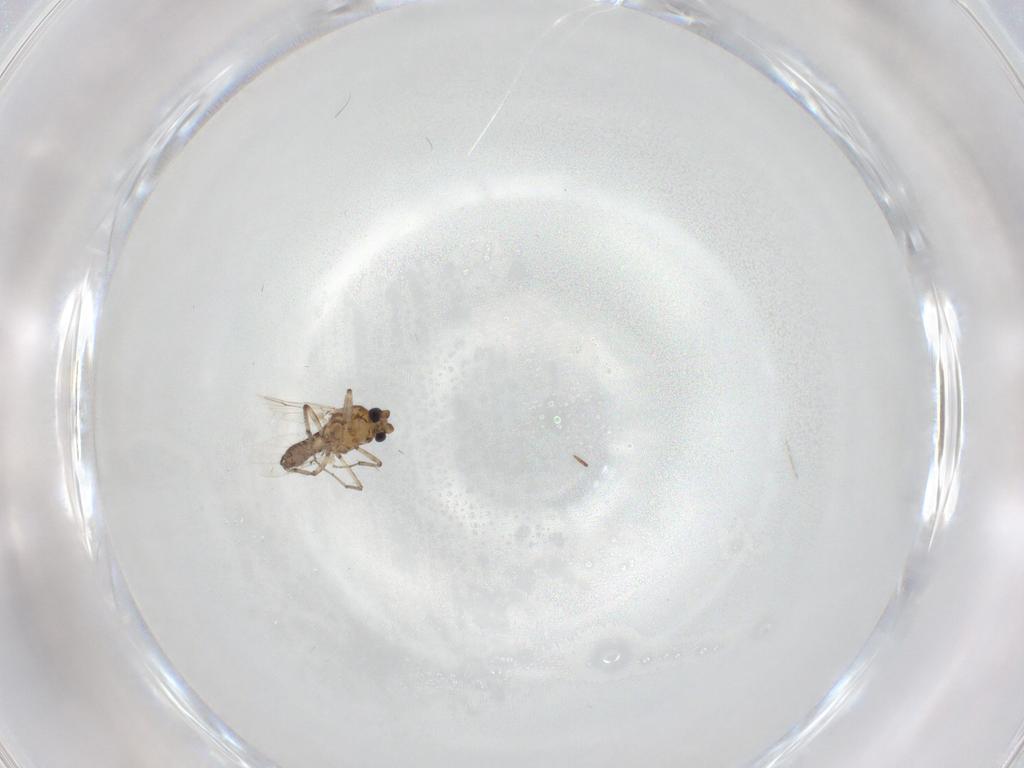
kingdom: Animalia
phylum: Arthropoda
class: Insecta
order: Diptera
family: Ceratopogonidae
